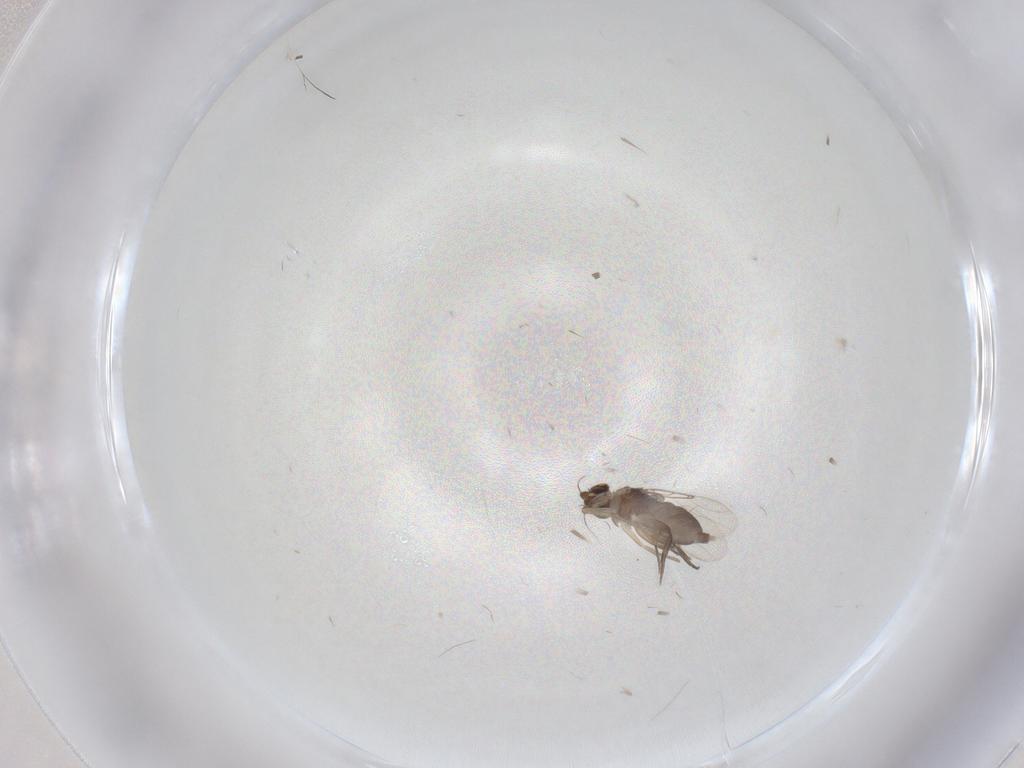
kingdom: Animalia
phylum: Arthropoda
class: Insecta
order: Diptera
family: Phoridae
